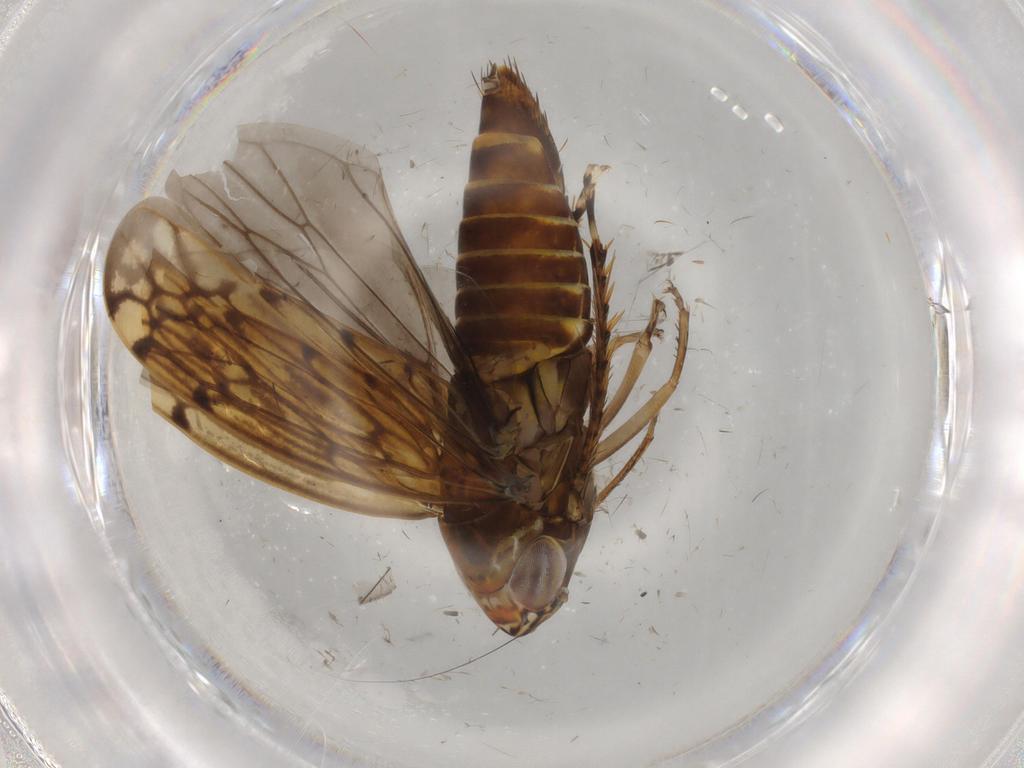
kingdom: Animalia
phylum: Arthropoda
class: Insecta
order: Hemiptera
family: Cicadellidae
